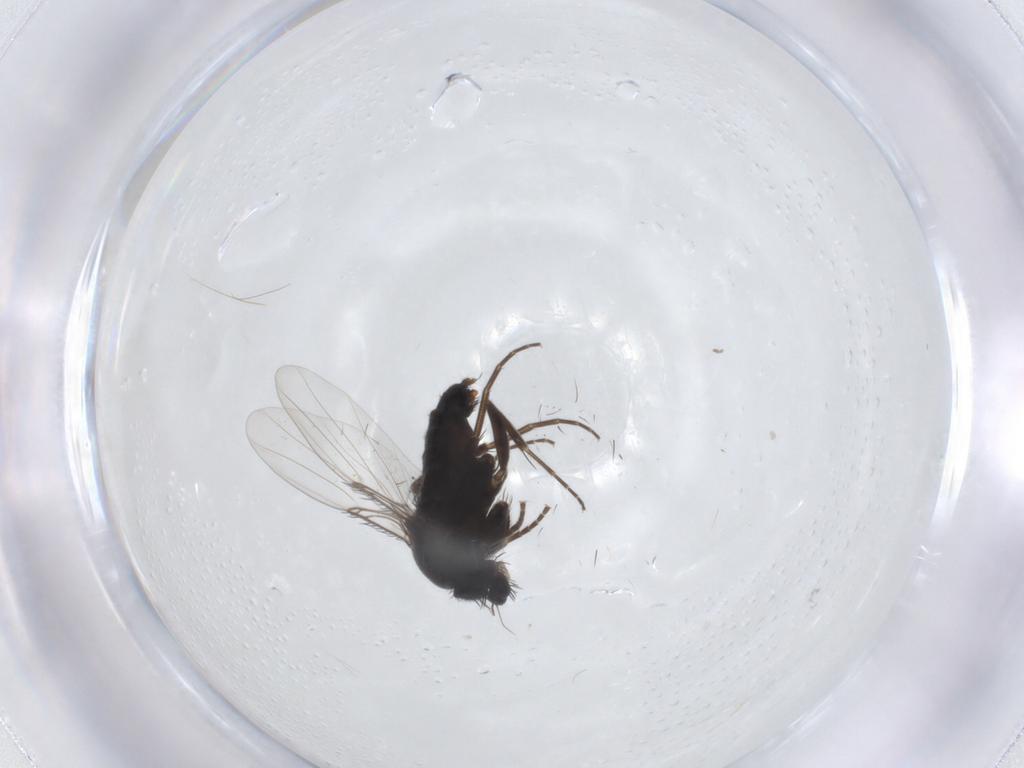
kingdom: Animalia
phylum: Arthropoda
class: Insecta
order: Diptera
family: Ceratopogonidae
